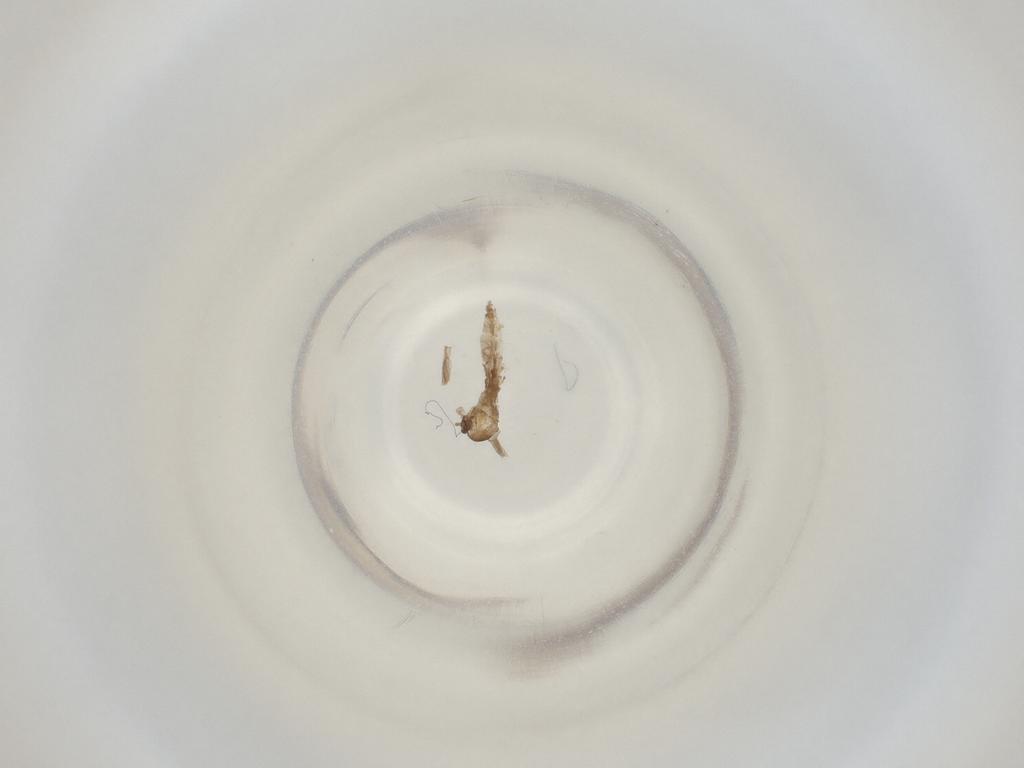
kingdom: Animalia
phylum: Arthropoda
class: Insecta
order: Diptera
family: Cecidomyiidae
